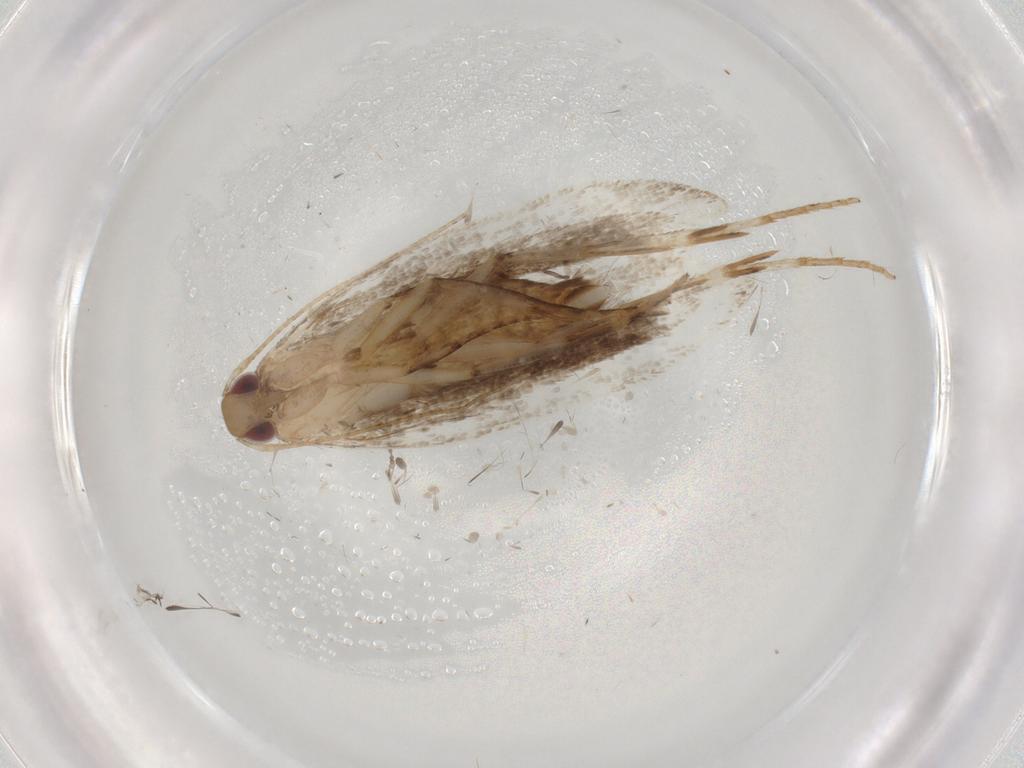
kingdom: Animalia
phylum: Arthropoda
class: Insecta
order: Lepidoptera
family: Gelechiidae
